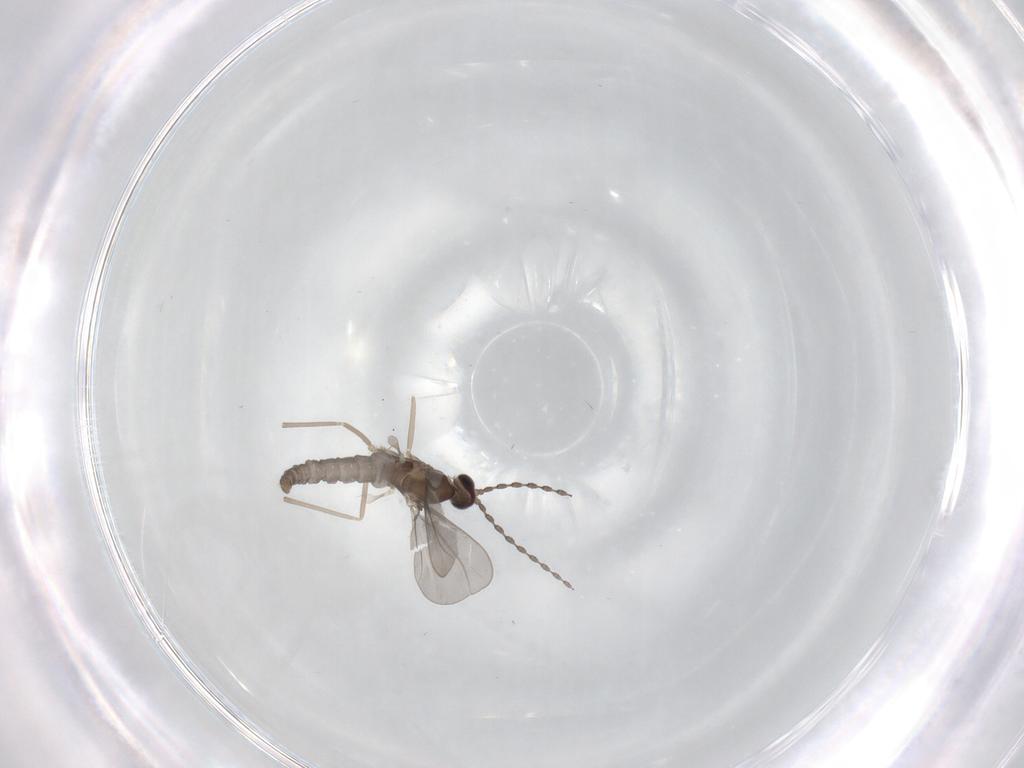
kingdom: Animalia
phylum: Arthropoda
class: Insecta
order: Diptera
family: Cecidomyiidae
